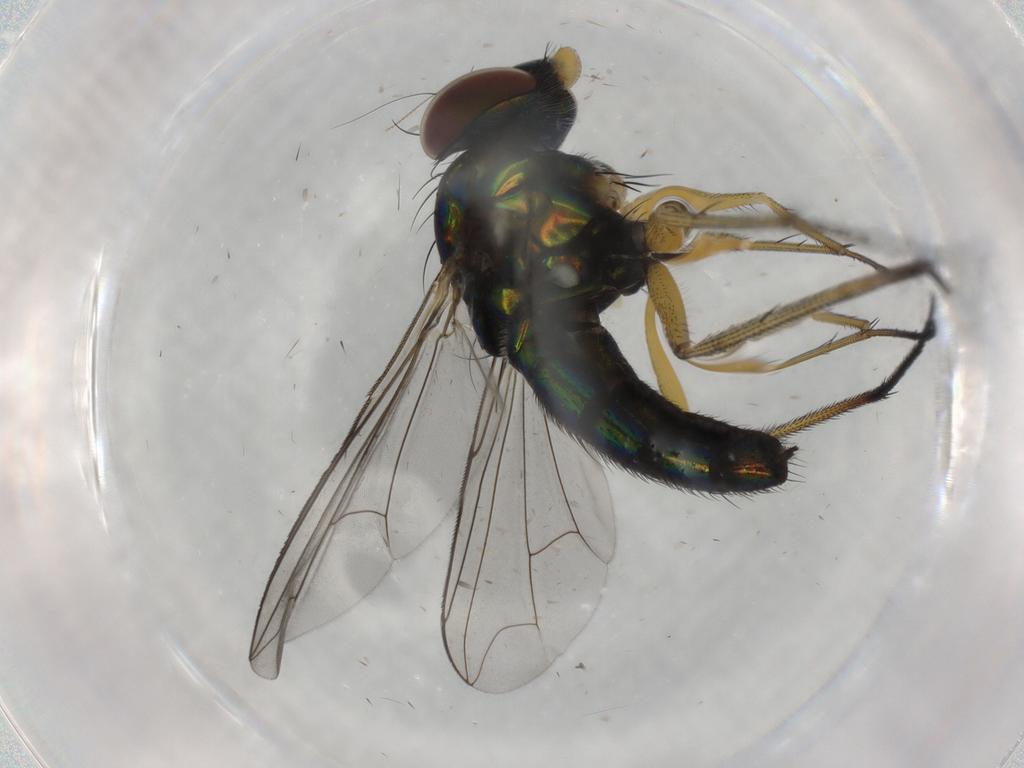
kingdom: Animalia
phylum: Arthropoda
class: Insecta
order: Diptera
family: Dolichopodidae
